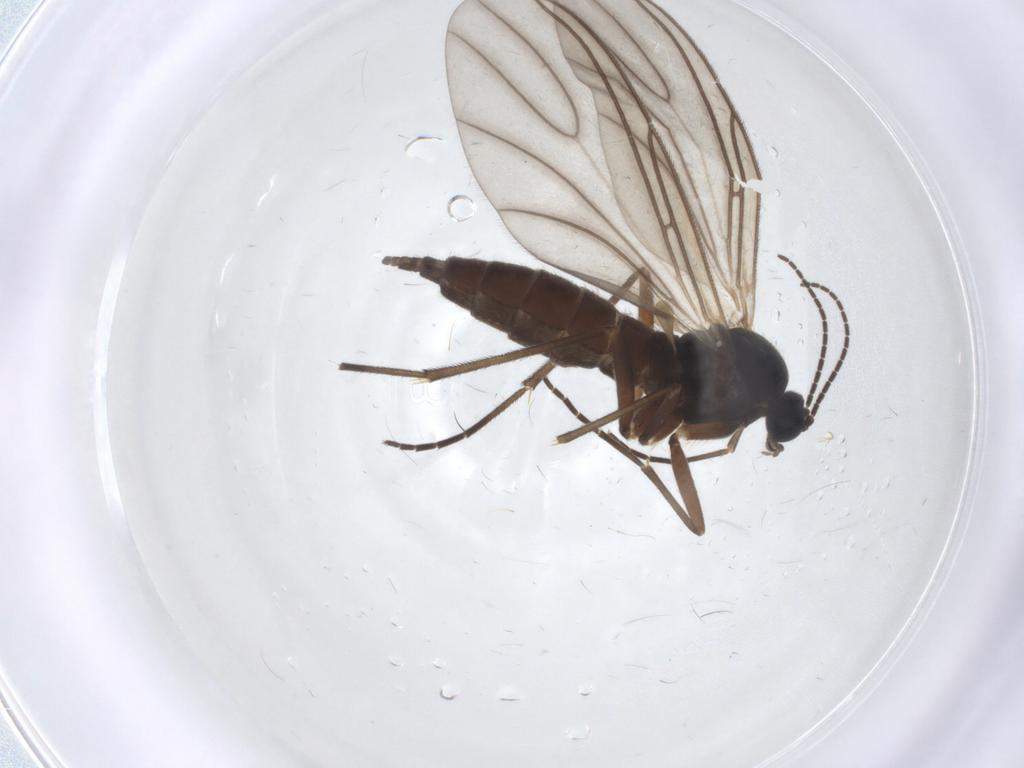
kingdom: Animalia
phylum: Arthropoda
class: Insecta
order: Diptera
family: Sciaridae
